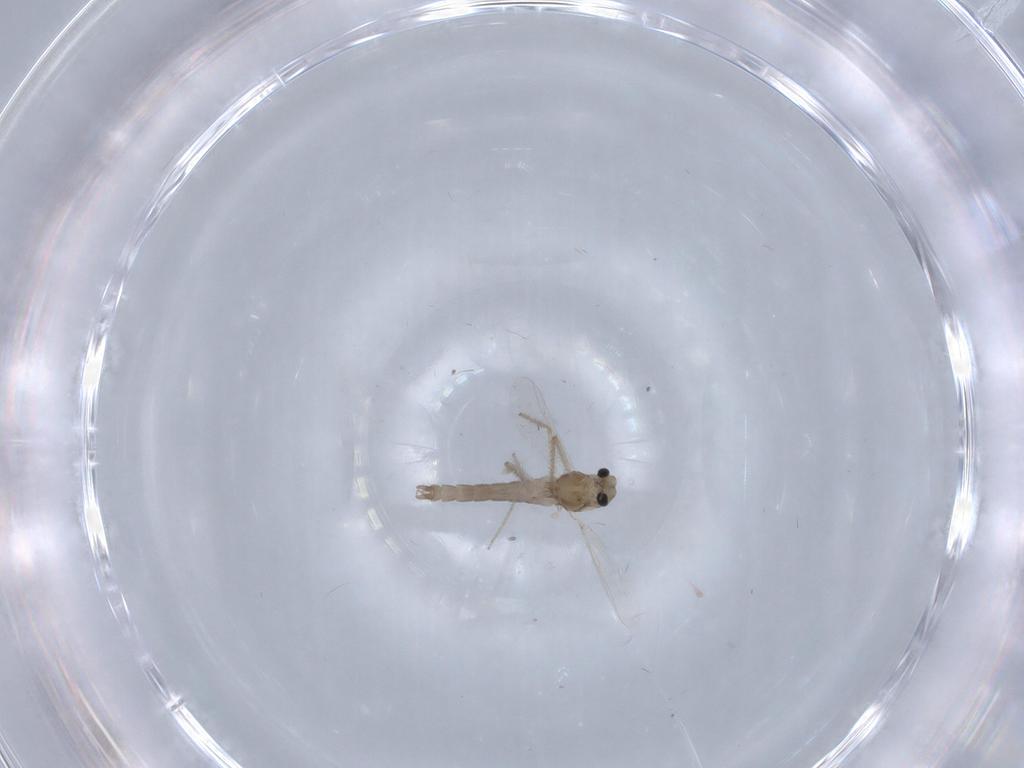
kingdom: Animalia
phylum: Arthropoda
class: Insecta
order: Diptera
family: Chironomidae
